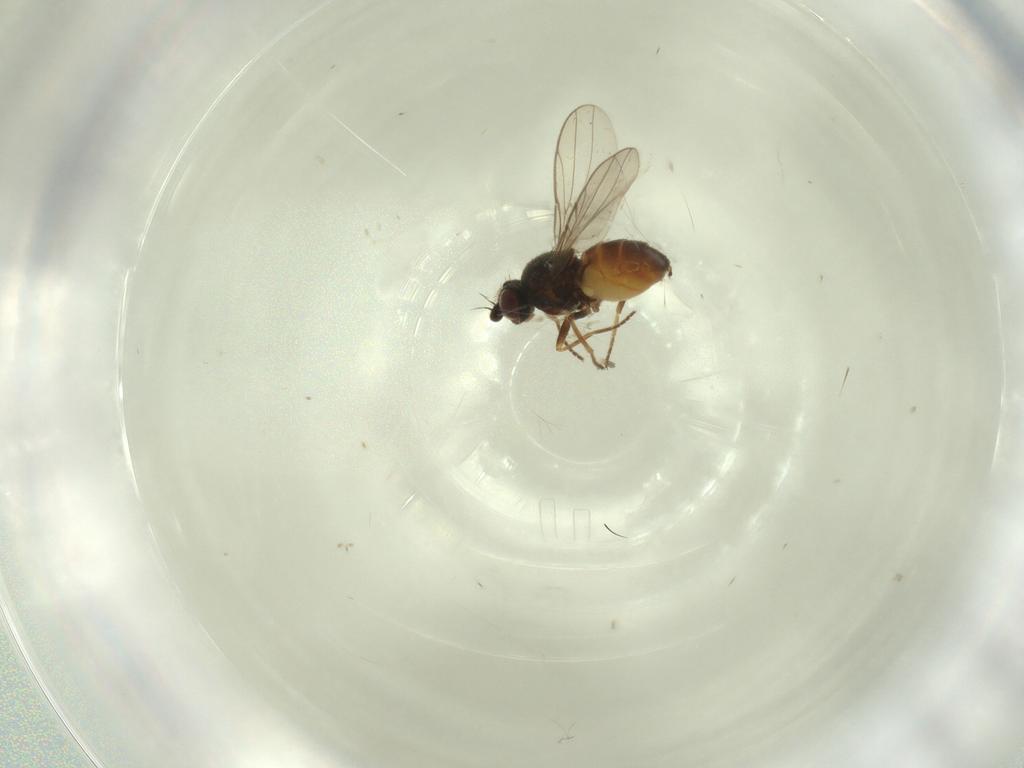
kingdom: Animalia
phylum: Arthropoda
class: Insecta
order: Diptera
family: Chloropidae
